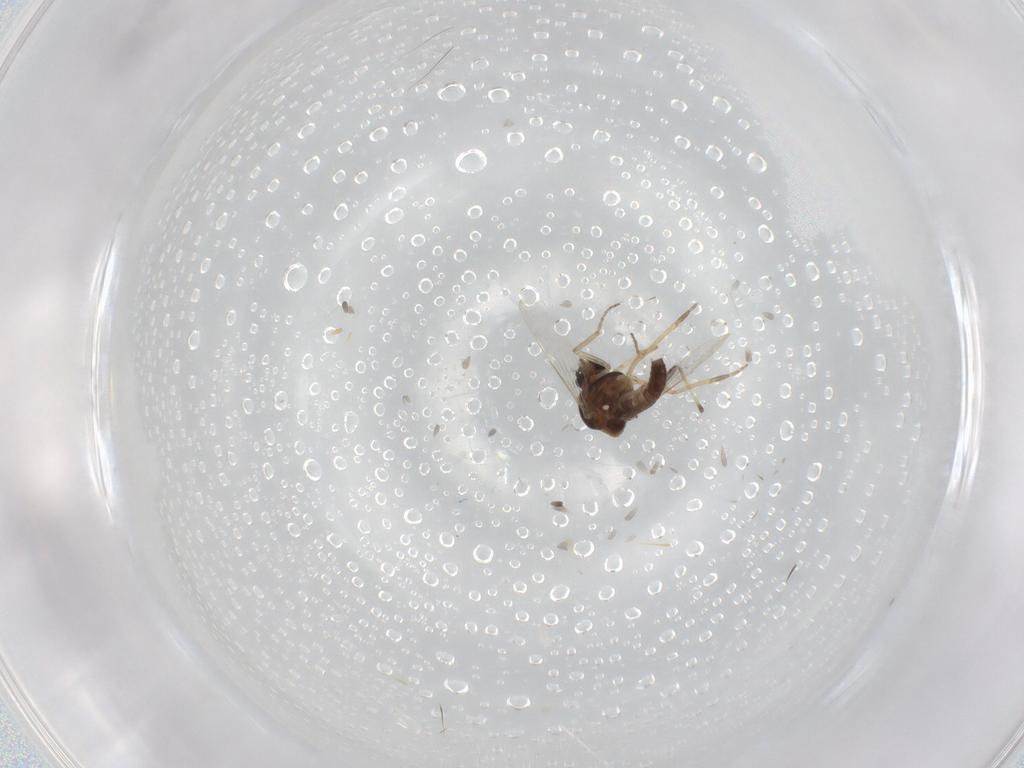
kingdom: Animalia
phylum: Arthropoda
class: Insecta
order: Diptera
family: Ceratopogonidae
